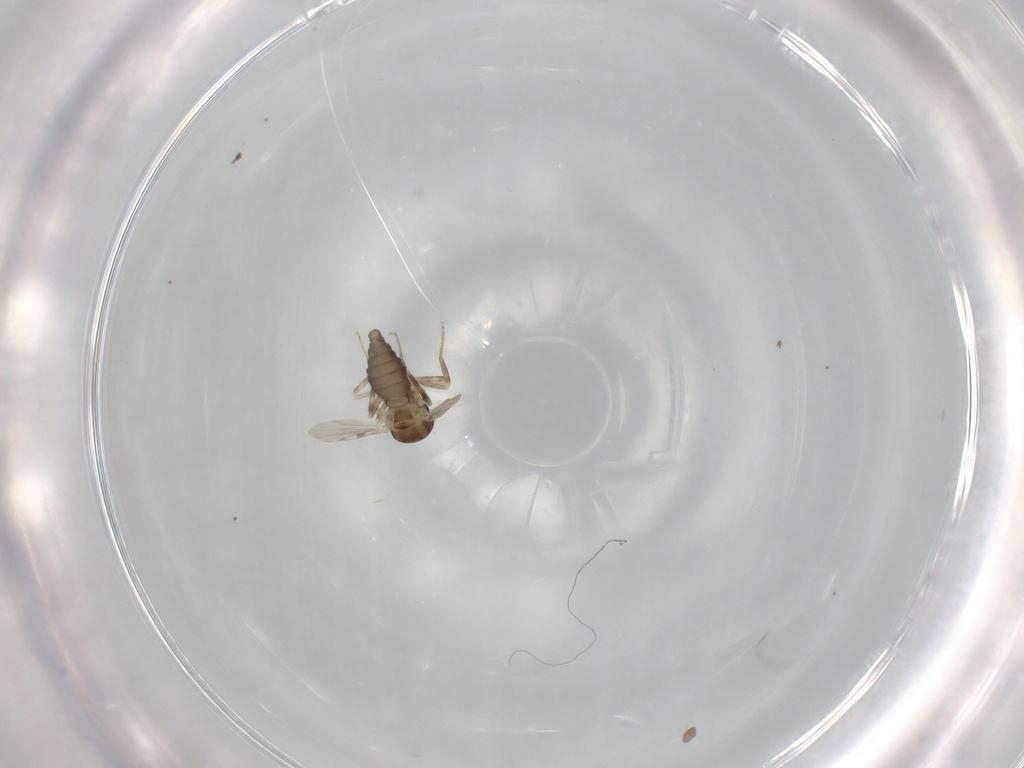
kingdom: Animalia
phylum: Arthropoda
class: Insecta
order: Diptera
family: Ceratopogonidae
